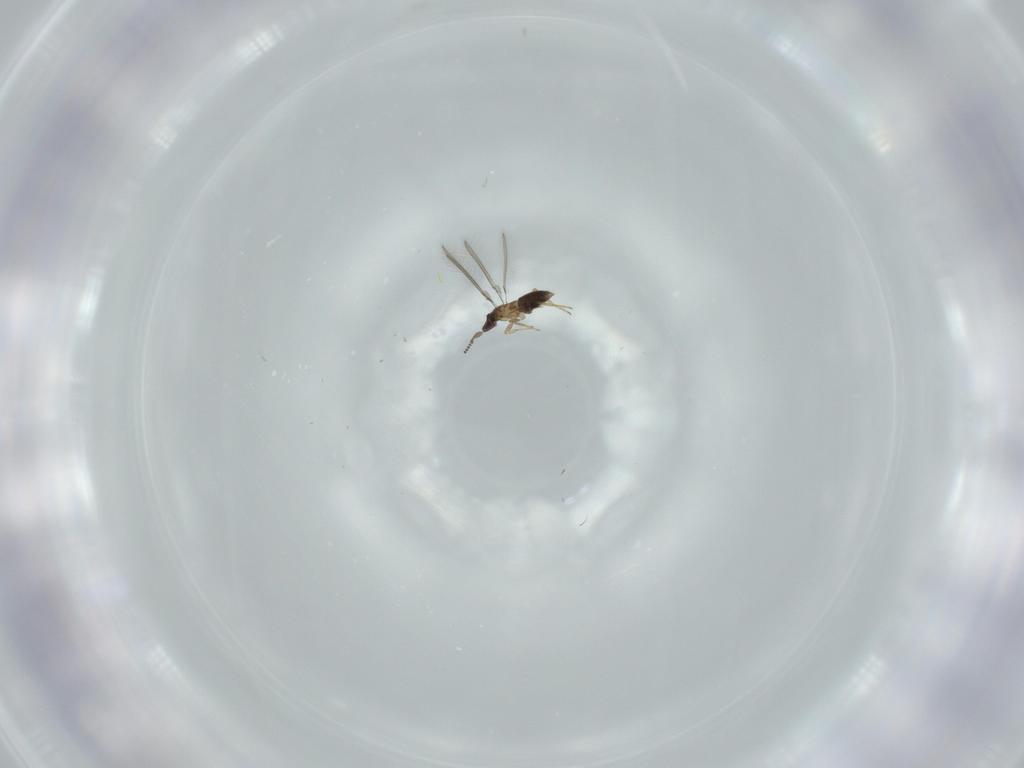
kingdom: Animalia
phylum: Arthropoda
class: Insecta
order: Hymenoptera
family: Mymaridae
